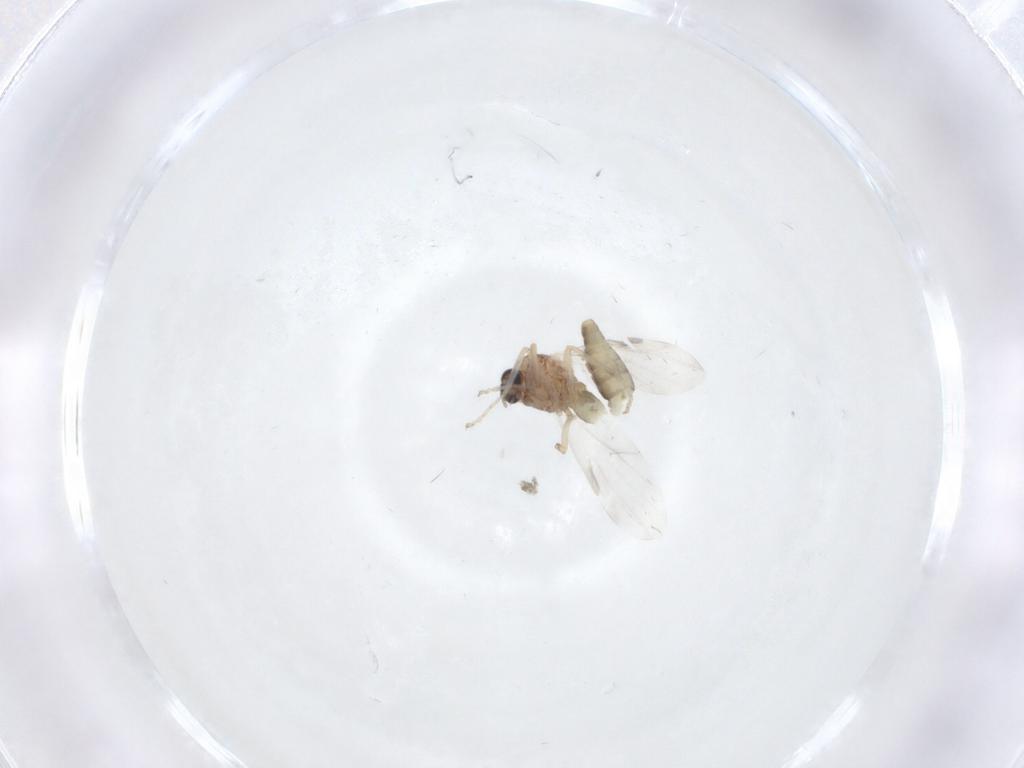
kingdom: Animalia
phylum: Arthropoda
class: Insecta
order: Diptera
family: Ceratopogonidae
